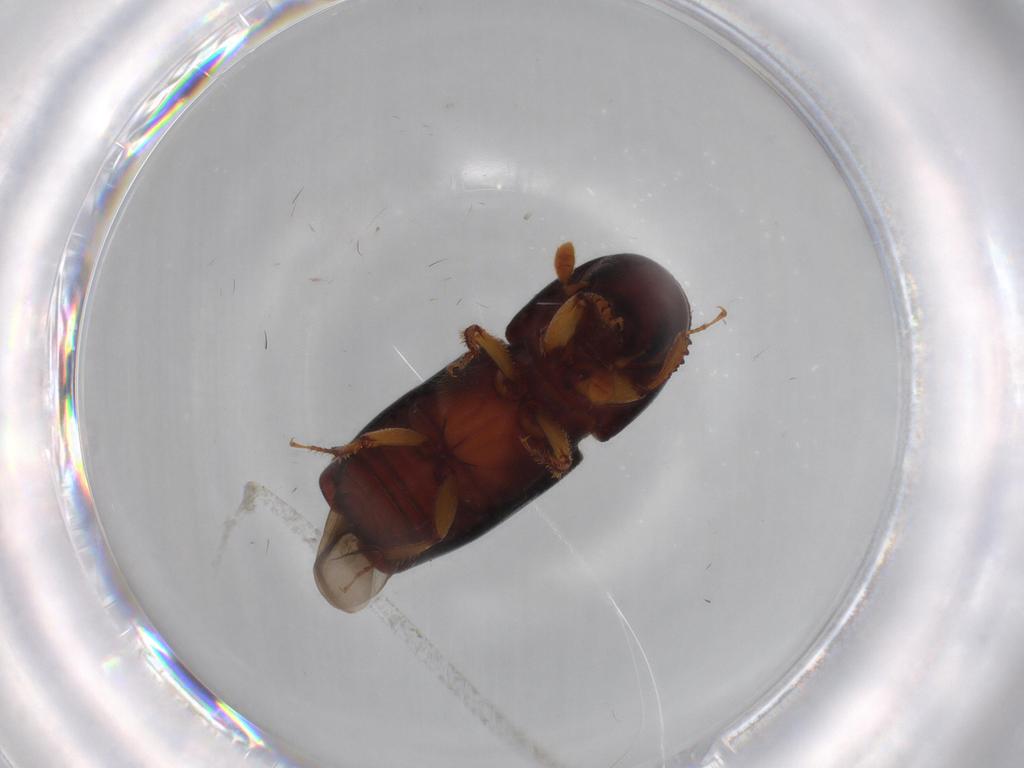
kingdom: Animalia
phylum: Arthropoda
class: Insecta
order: Coleoptera
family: Curculionidae
